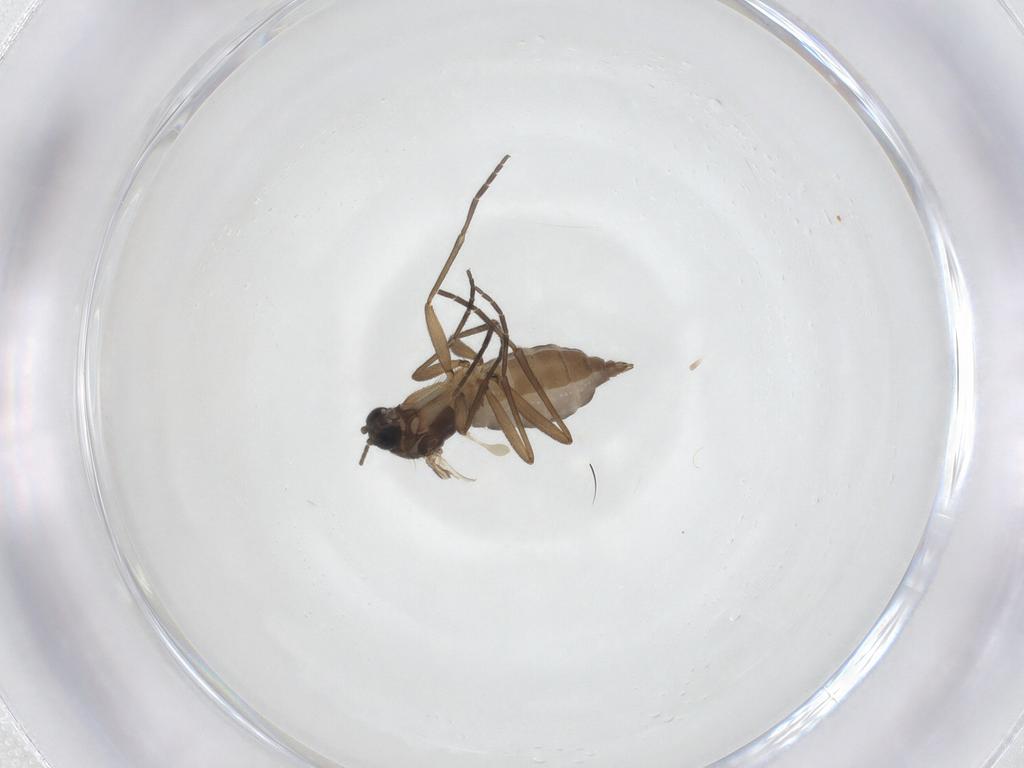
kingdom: Animalia
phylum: Arthropoda
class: Insecta
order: Diptera
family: Sciaridae
